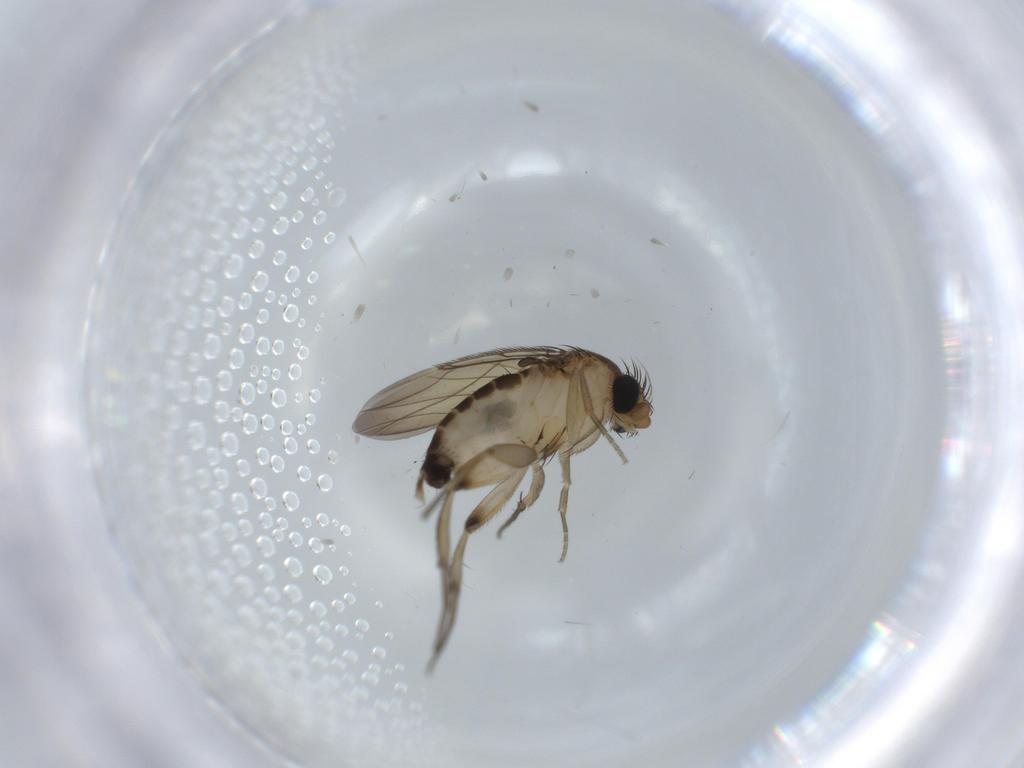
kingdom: Animalia
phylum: Arthropoda
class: Insecta
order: Diptera
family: Phoridae
